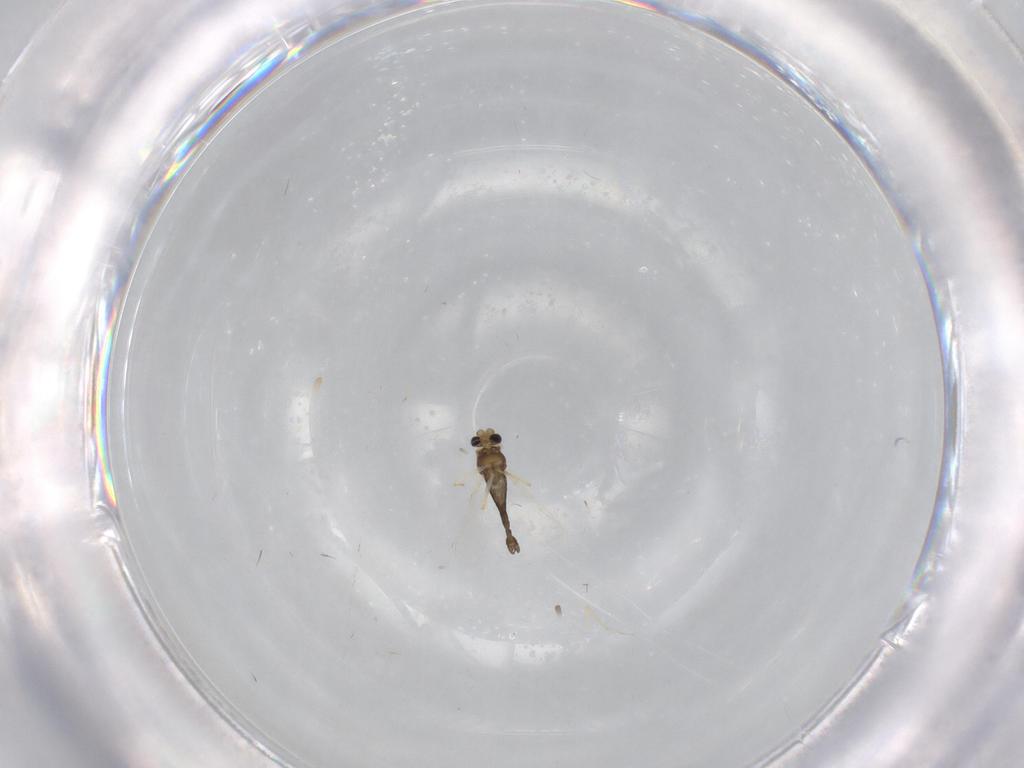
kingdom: Animalia
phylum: Arthropoda
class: Insecta
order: Diptera
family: Chironomidae
